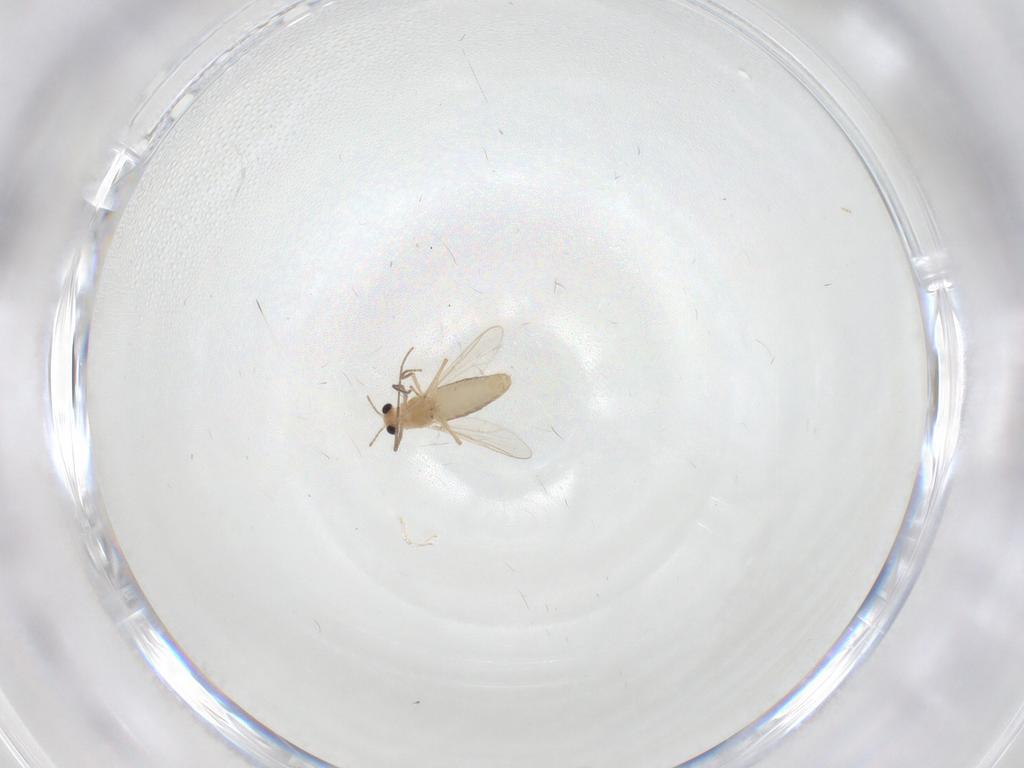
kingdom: Animalia
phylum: Arthropoda
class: Insecta
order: Diptera
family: Chironomidae
